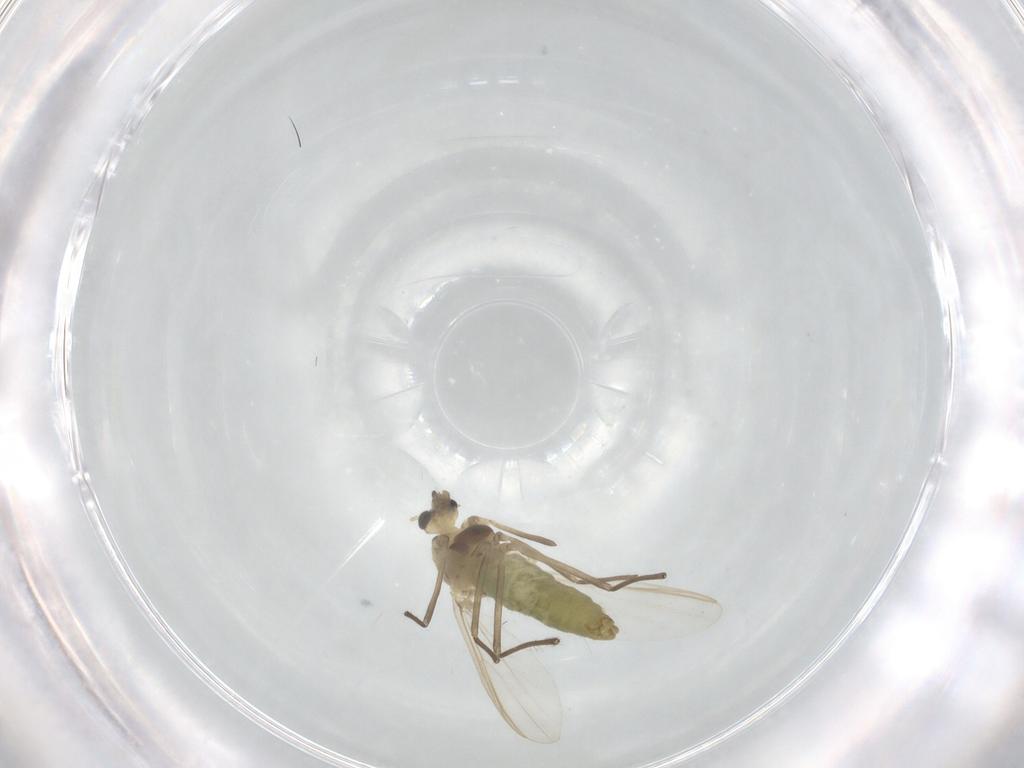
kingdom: Animalia
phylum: Arthropoda
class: Insecta
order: Diptera
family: Chironomidae
